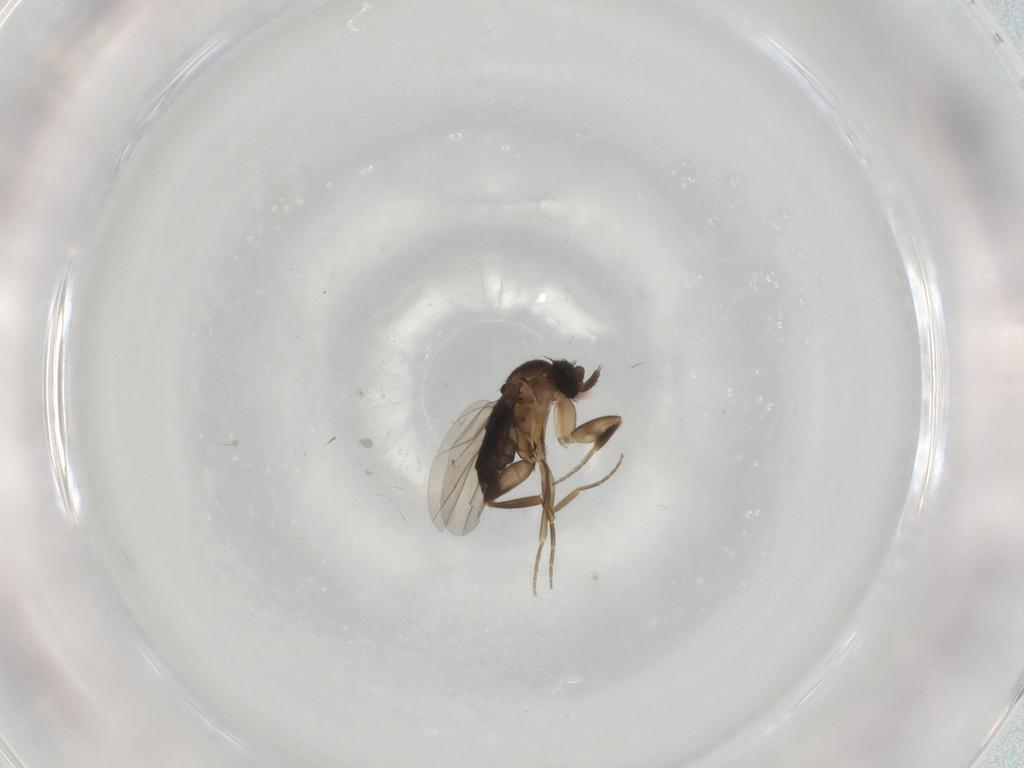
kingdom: Animalia
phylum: Arthropoda
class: Insecta
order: Diptera
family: Phoridae
